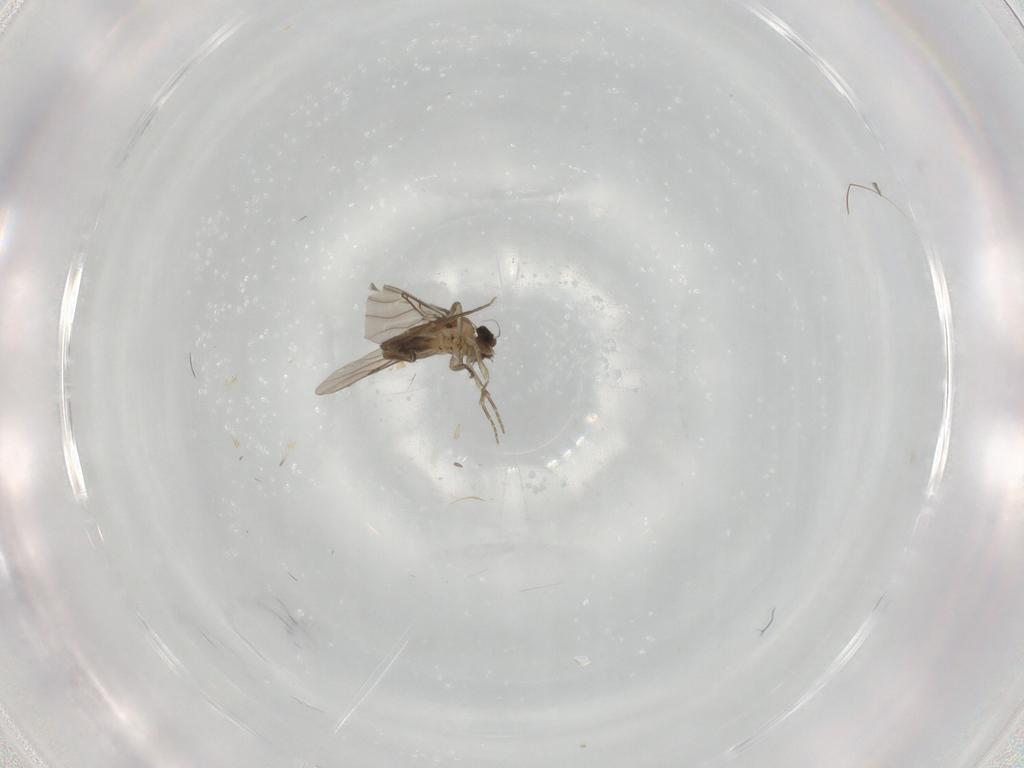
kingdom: Animalia
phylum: Arthropoda
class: Insecta
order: Diptera
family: Phoridae
